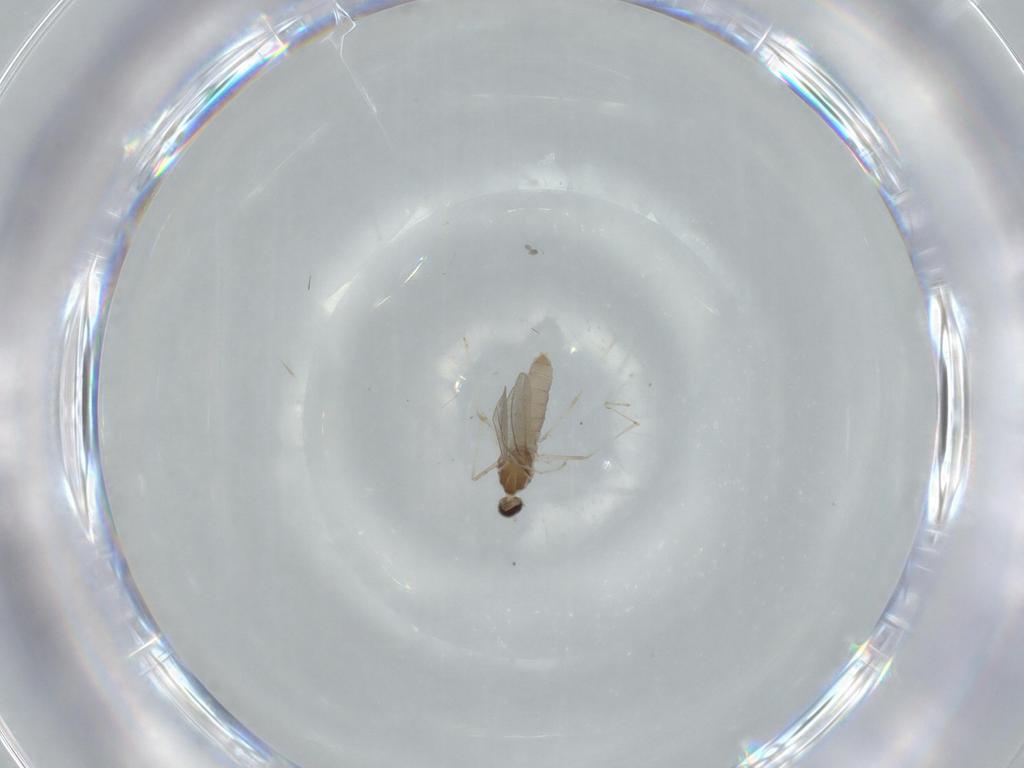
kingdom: Animalia
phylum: Arthropoda
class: Insecta
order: Diptera
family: Cecidomyiidae
